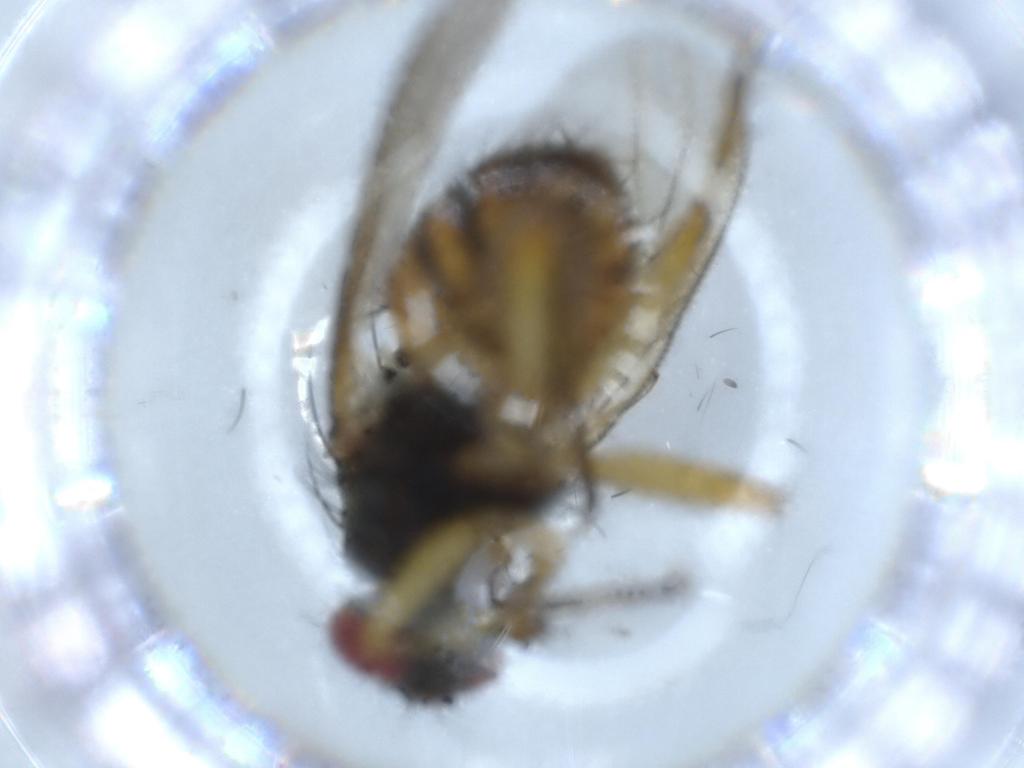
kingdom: Animalia
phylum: Arthropoda
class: Insecta
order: Diptera
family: Muscidae
